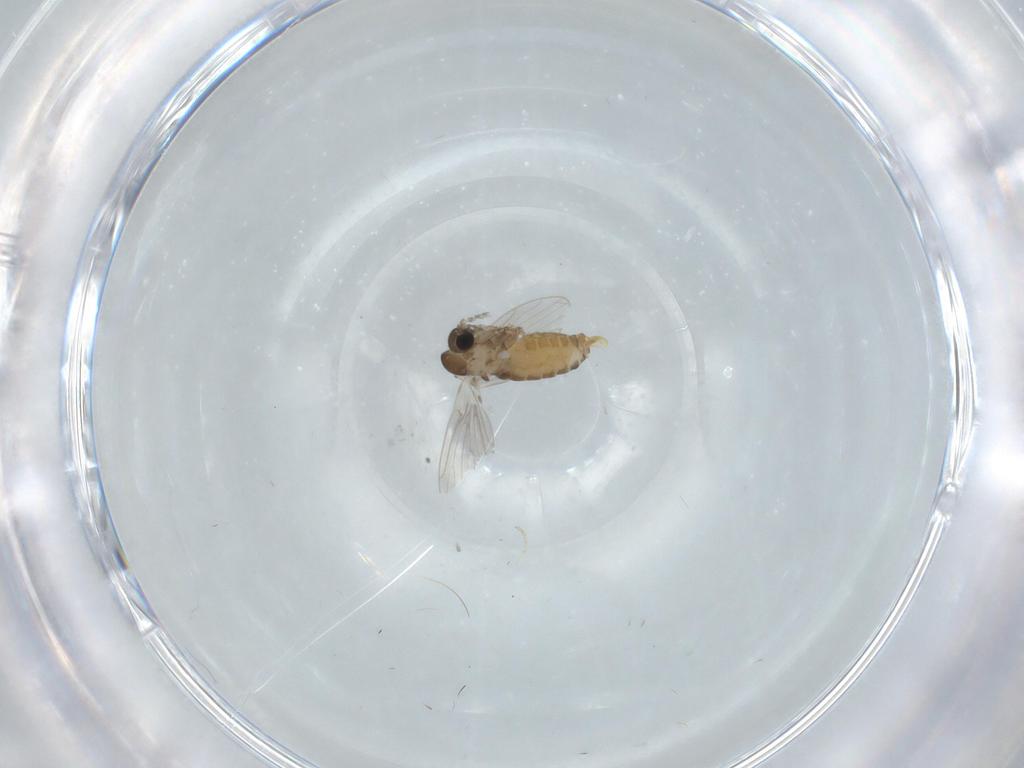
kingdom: Animalia
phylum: Arthropoda
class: Insecta
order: Diptera
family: Cecidomyiidae
